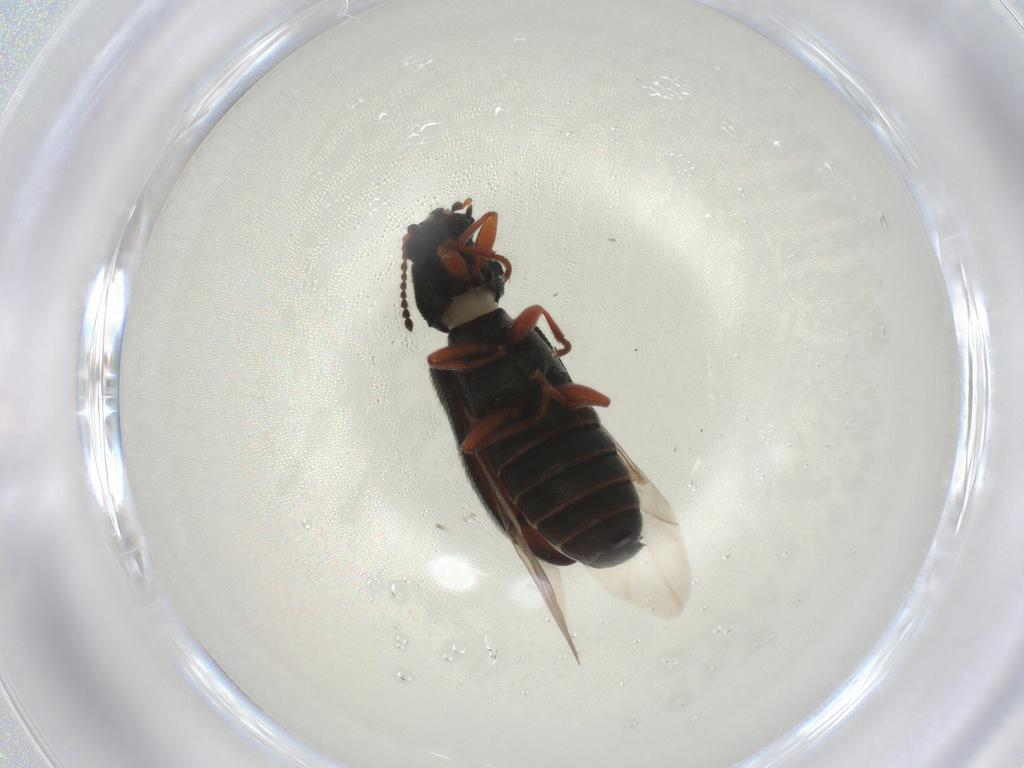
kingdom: Animalia
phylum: Arthropoda
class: Insecta
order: Coleoptera
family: Melyridae
